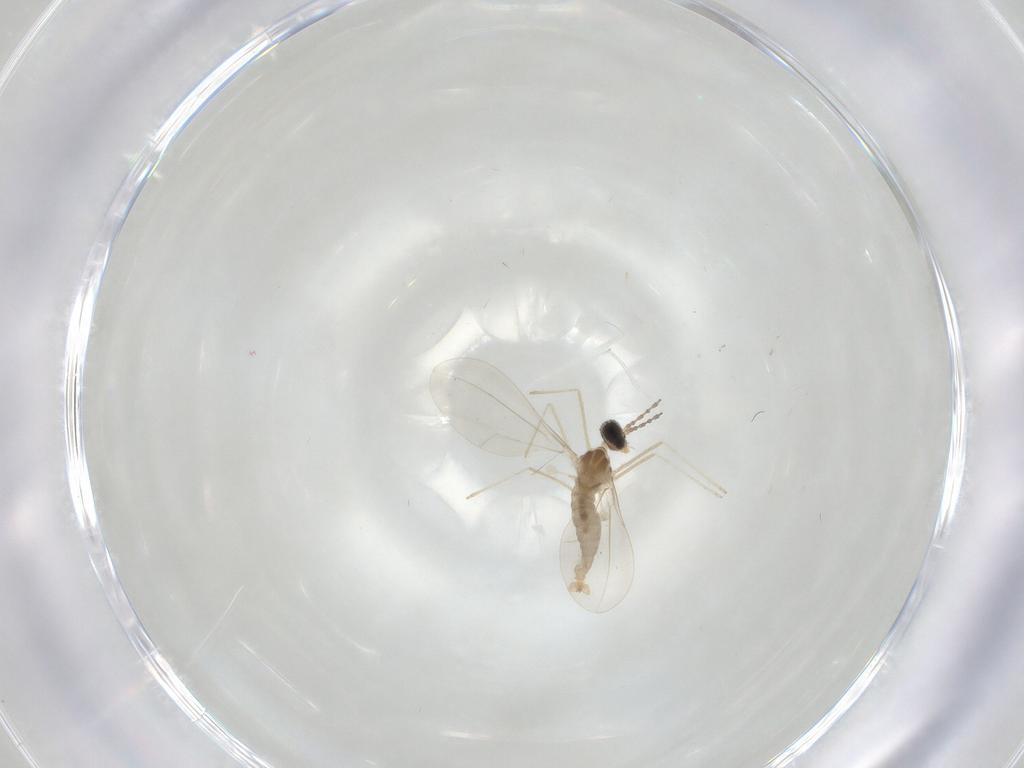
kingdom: Animalia
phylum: Arthropoda
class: Insecta
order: Diptera
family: Cecidomyiidae
